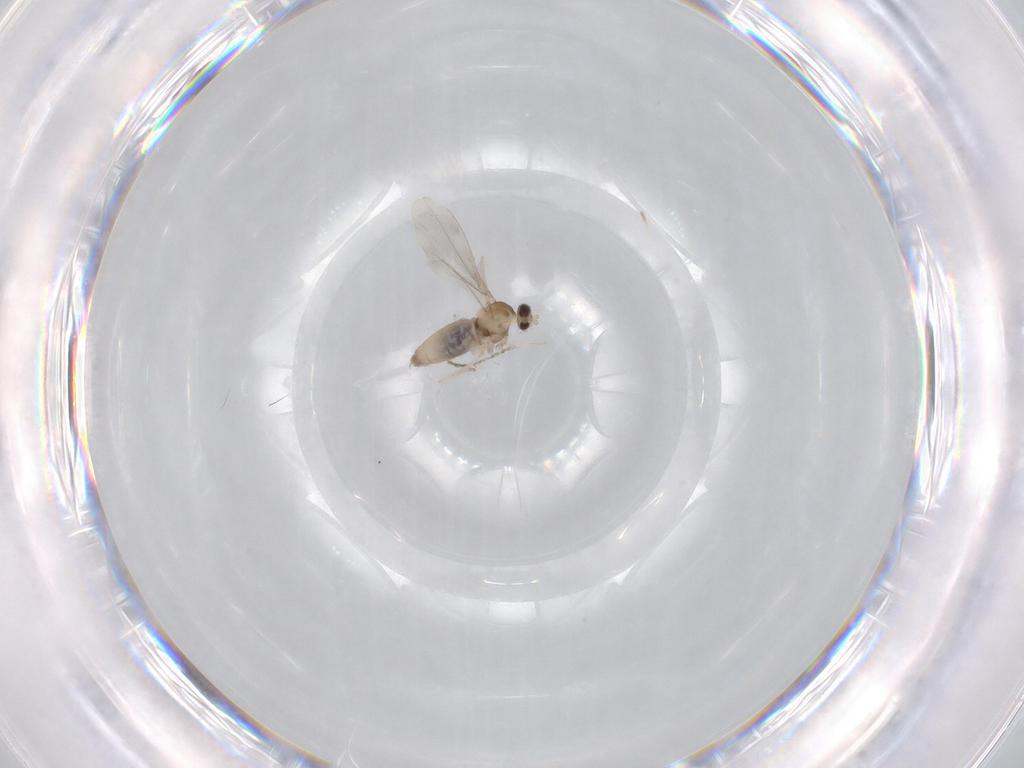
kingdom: Animalia
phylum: Arthropoda
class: Insecta
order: Diptera
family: Cecidomyiidae
